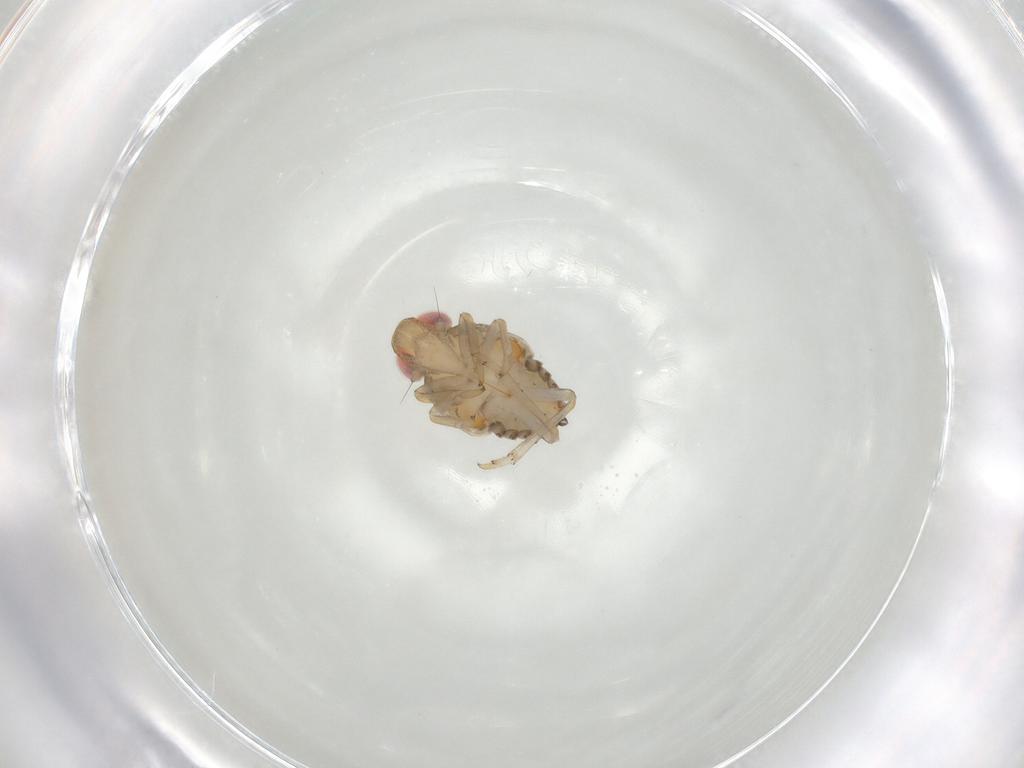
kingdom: Animalia
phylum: Arthropoda
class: Insecta
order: Hemiptera
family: Issidae
